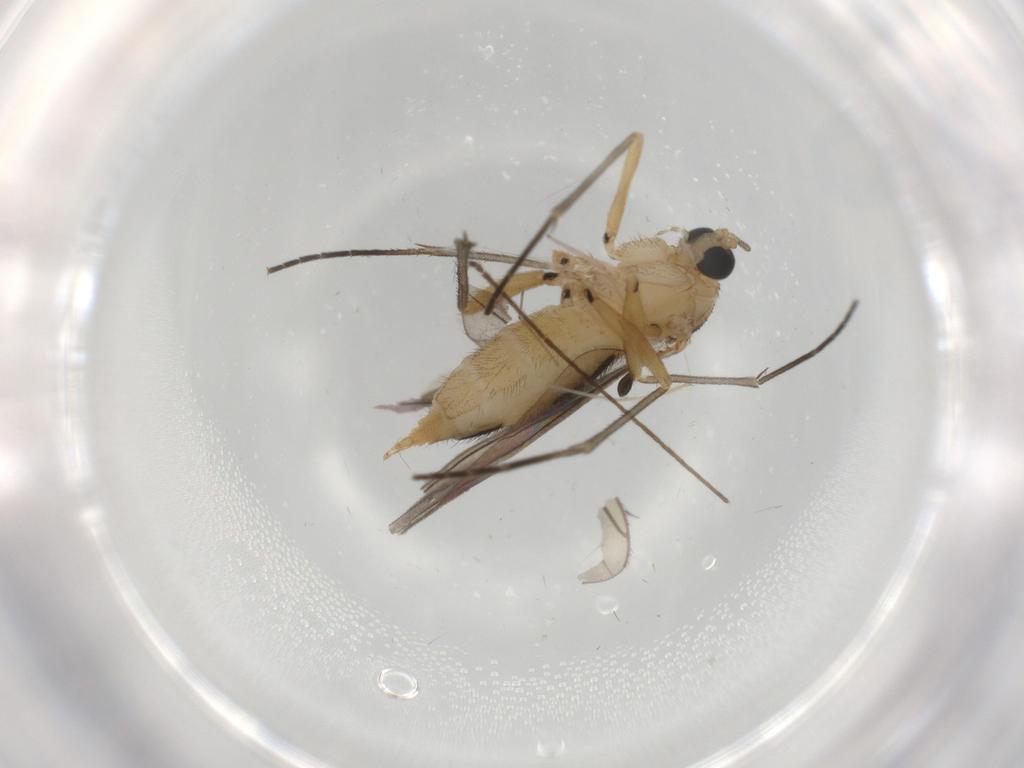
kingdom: Animalia
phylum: Arthropoda
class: Insecta
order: Diptera
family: Sciaridae
